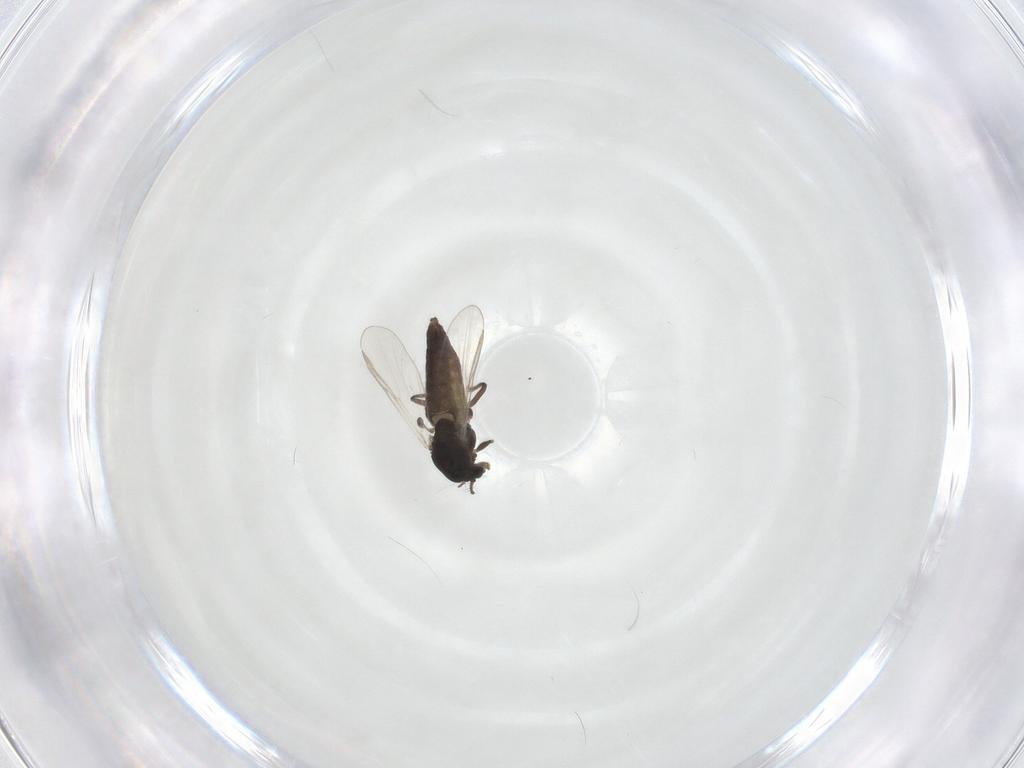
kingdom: Animalia
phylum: Arthropoda
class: Insecta
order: Diptera
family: Chironomidae
